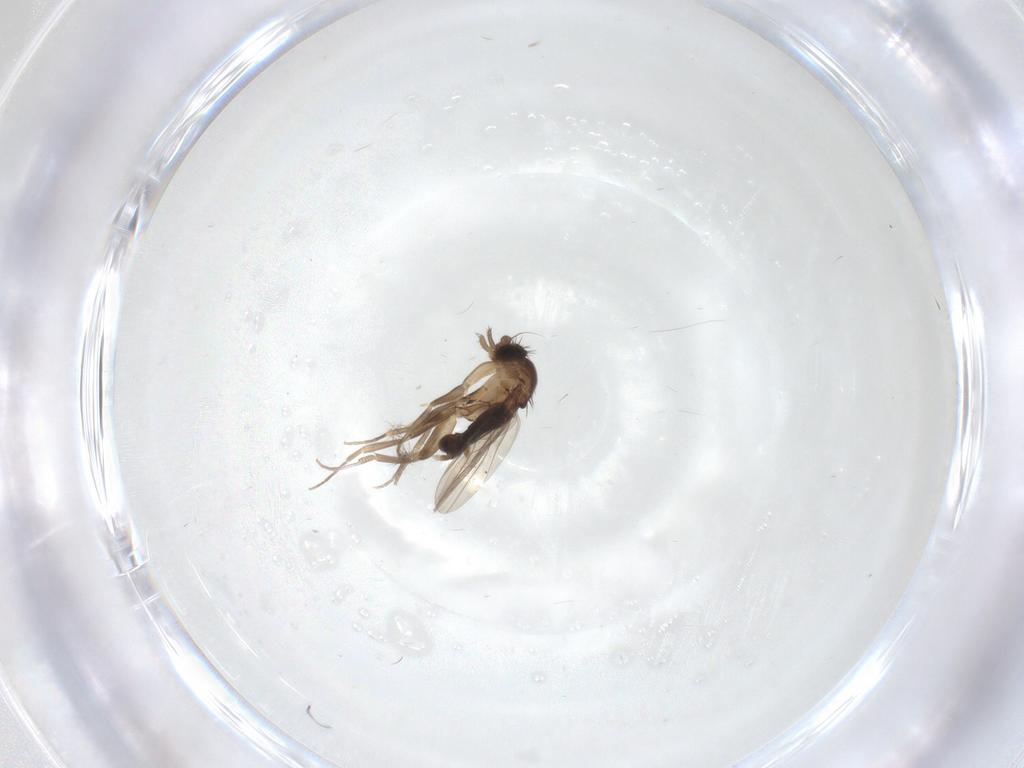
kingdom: Animalia
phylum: Arthropoda
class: Insecta
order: Diptera
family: Phoridae
